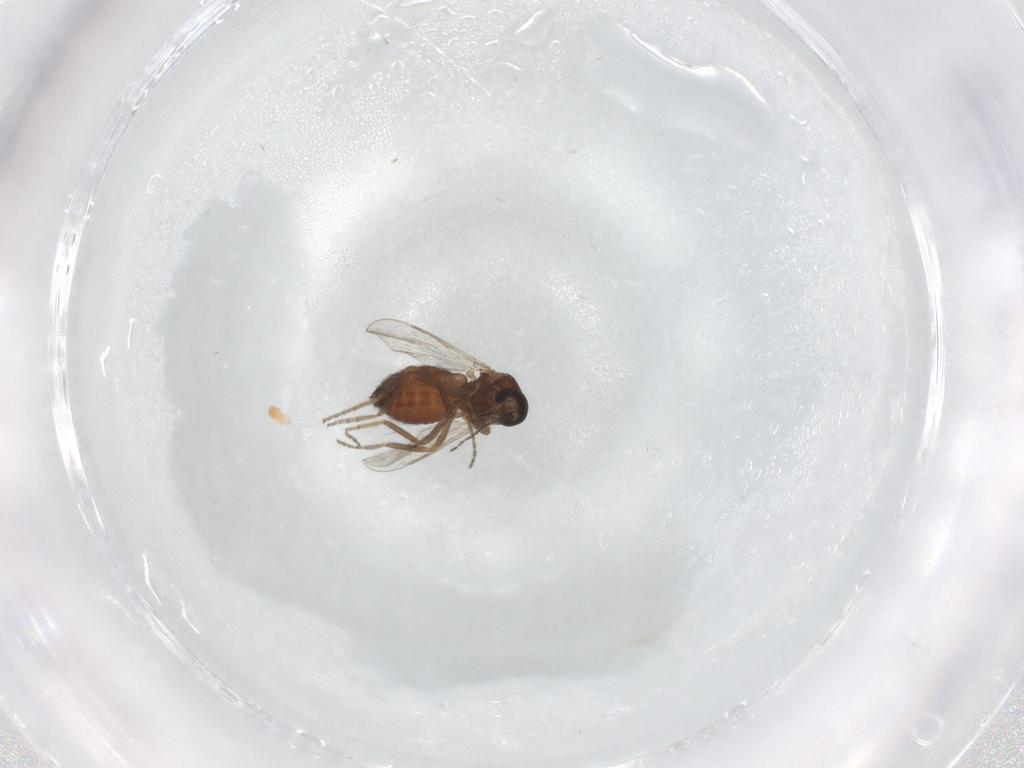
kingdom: Animalia
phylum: Arthropoda
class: Insecta
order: Diptera
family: Ceratopogonidae
